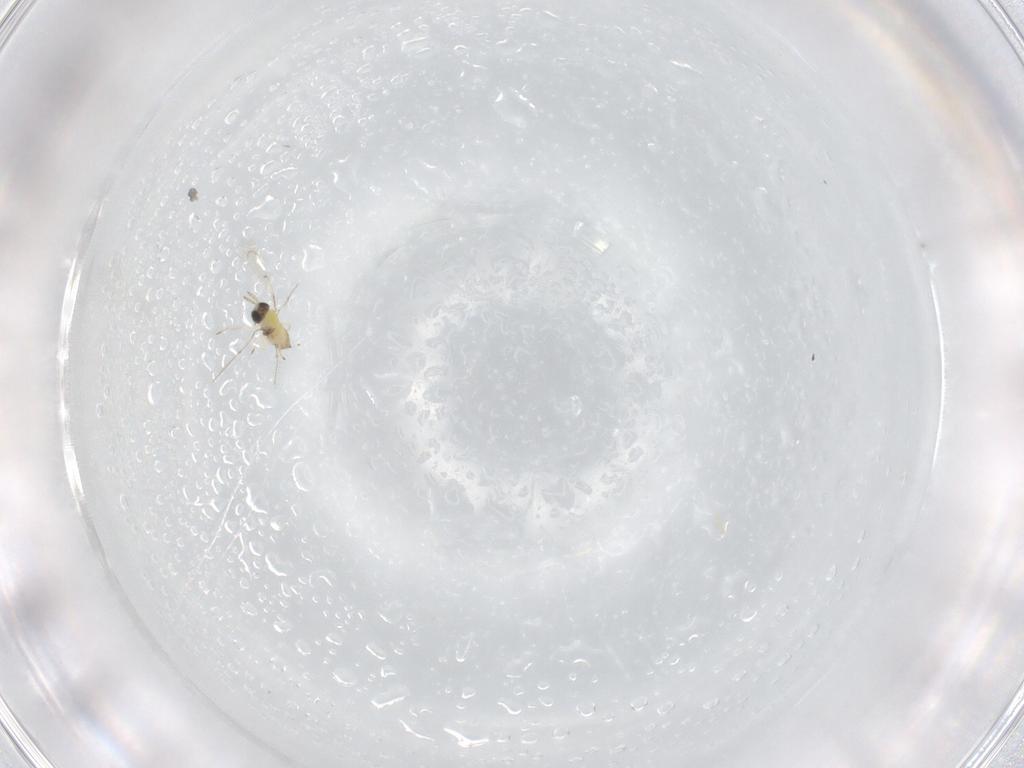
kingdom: Animalia
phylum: Arthropoda
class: Insecta
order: Hymenoptera
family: Trichogrammatidae
